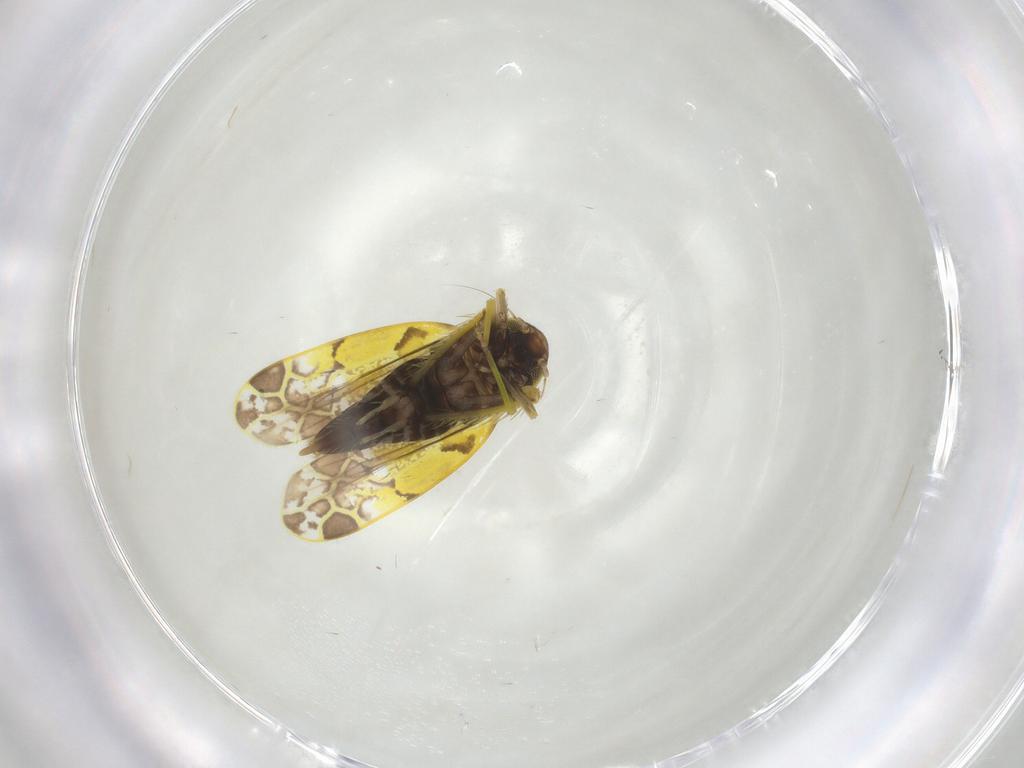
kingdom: Animalia
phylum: Arthropoda
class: Insecta
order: Hemiptera
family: Cicadellidae
